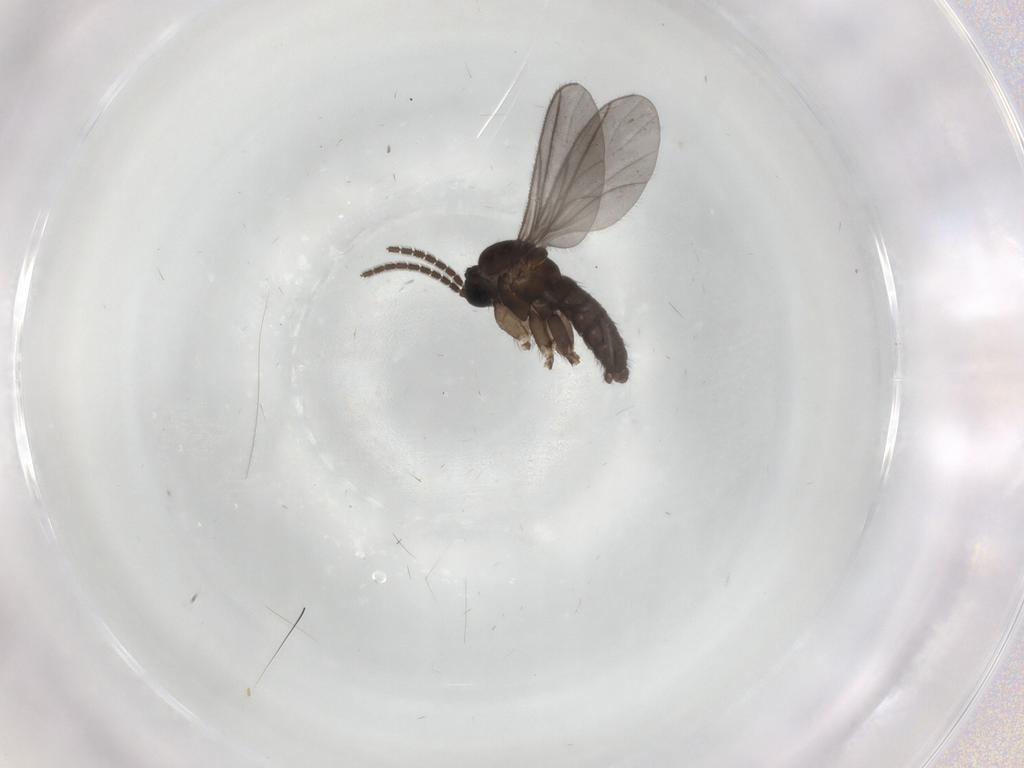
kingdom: Animalia
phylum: Arthropoda
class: Insecta
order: Diptera
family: Sciaridae
